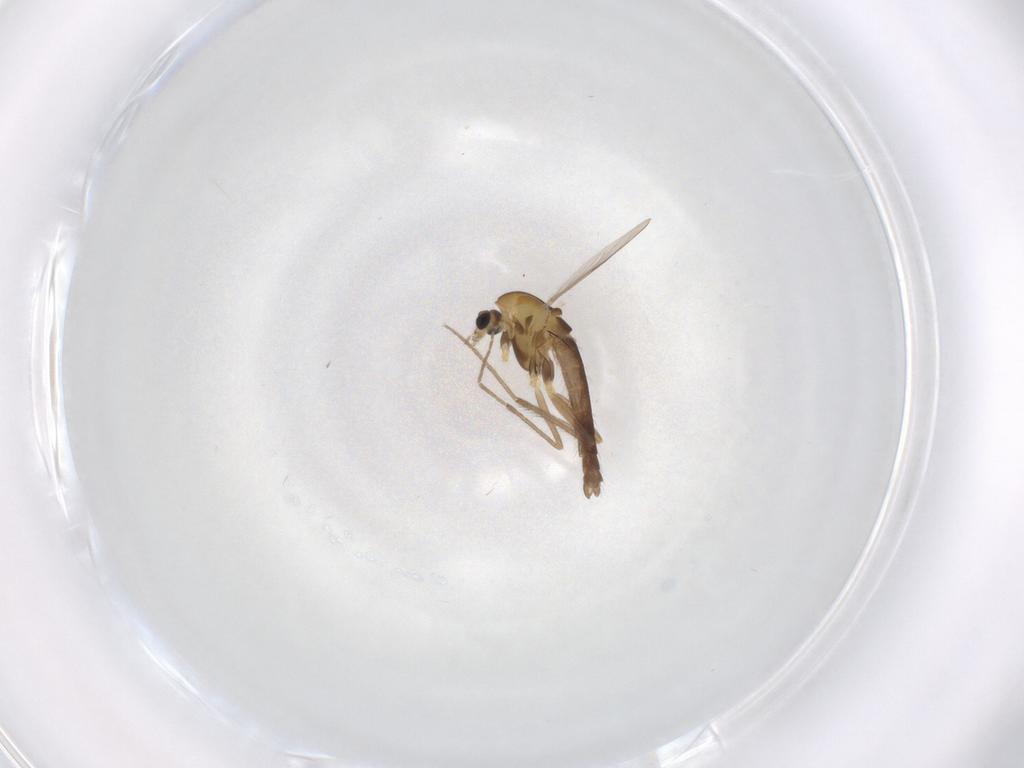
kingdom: Animalia
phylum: Arthropoda
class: Insecta
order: Diptera
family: Chironomidae
